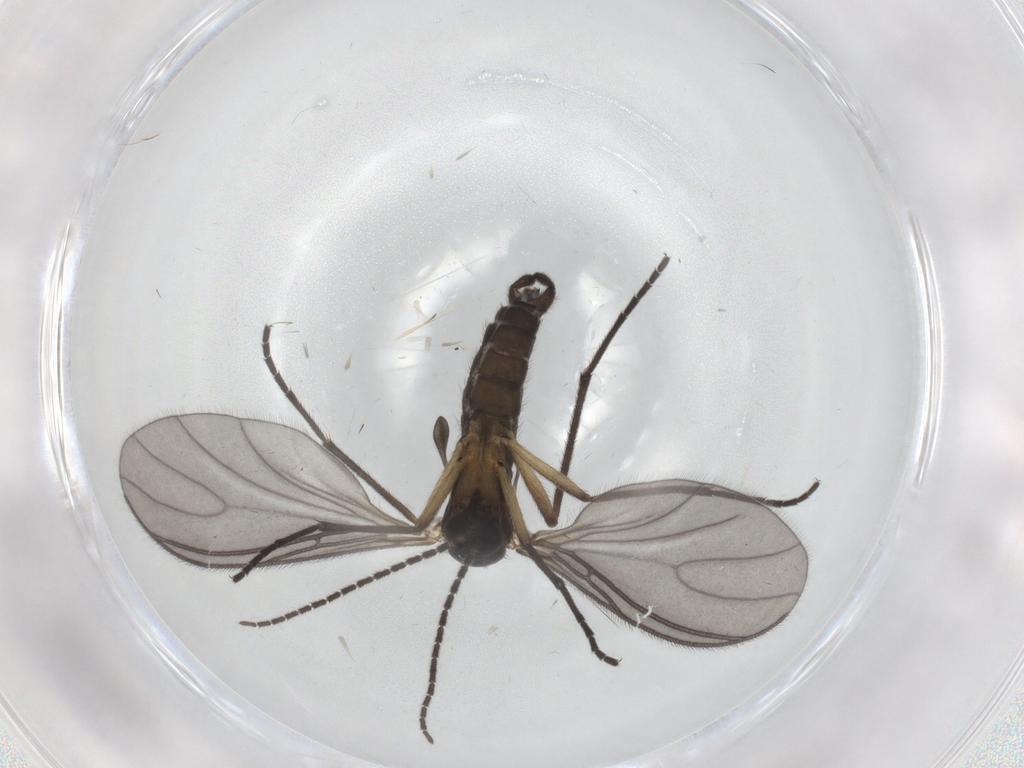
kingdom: Animalia
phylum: Arthropoda
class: Insecta
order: Diptera
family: Sciaridae
